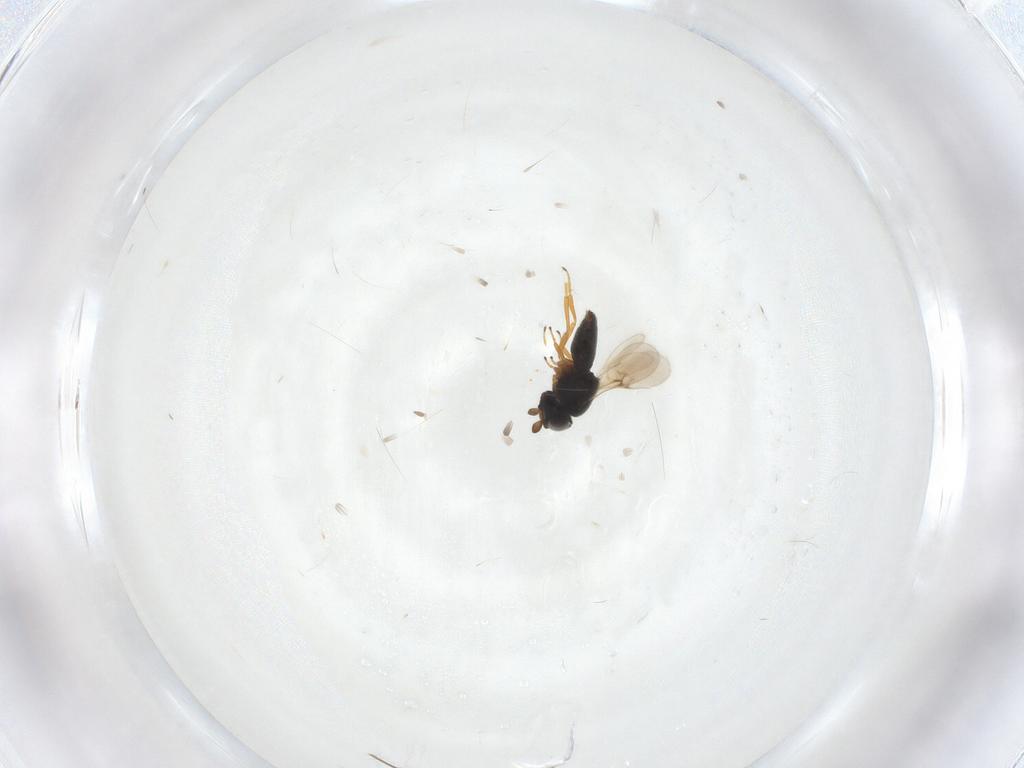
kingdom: Animalia
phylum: Arthropoda
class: Insecta
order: Hymenoptera
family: Scelionidae
